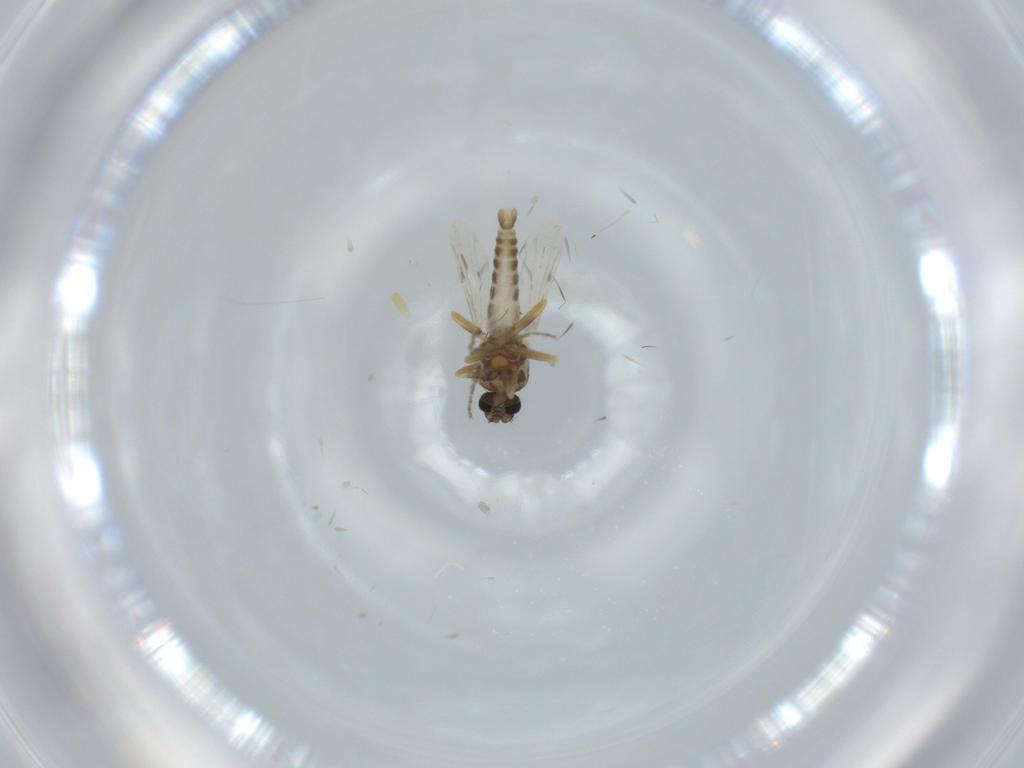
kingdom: Animalia
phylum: Arthropoda
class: Insecta
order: Diptera
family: Ceratopogonidae
